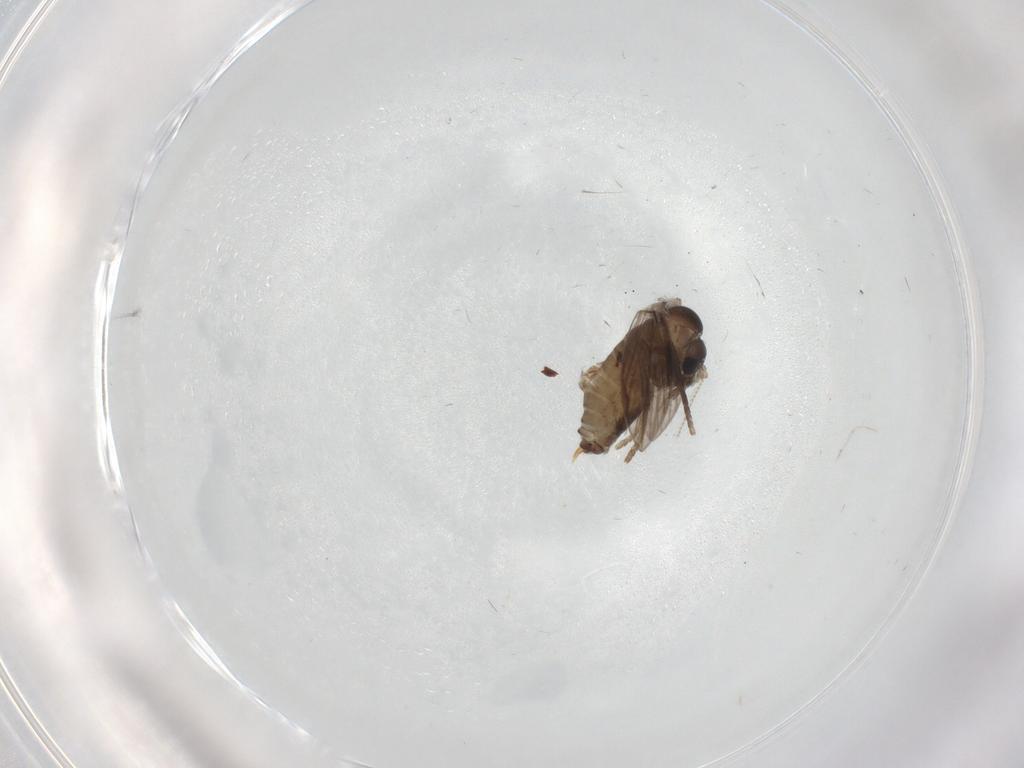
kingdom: Animalia
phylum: Arthropoda
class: Insecta
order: Diptera
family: Psychodidae
